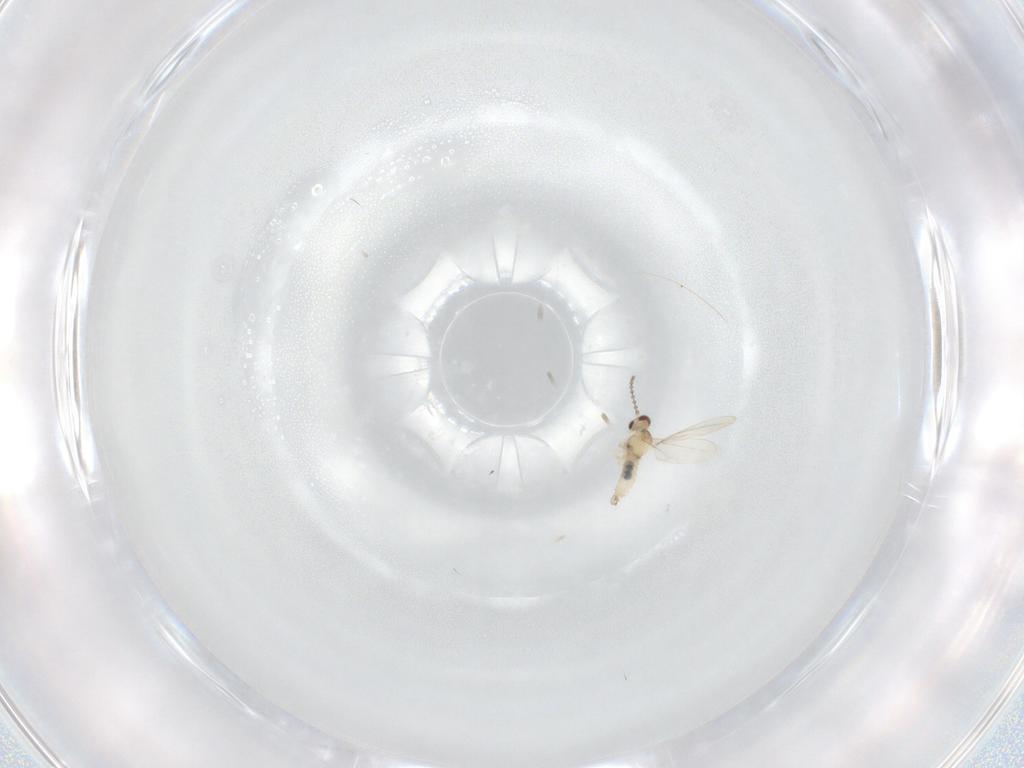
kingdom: Animalia
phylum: Arthropoda
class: Insecta
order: Diptera
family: Cecidomyiidae
